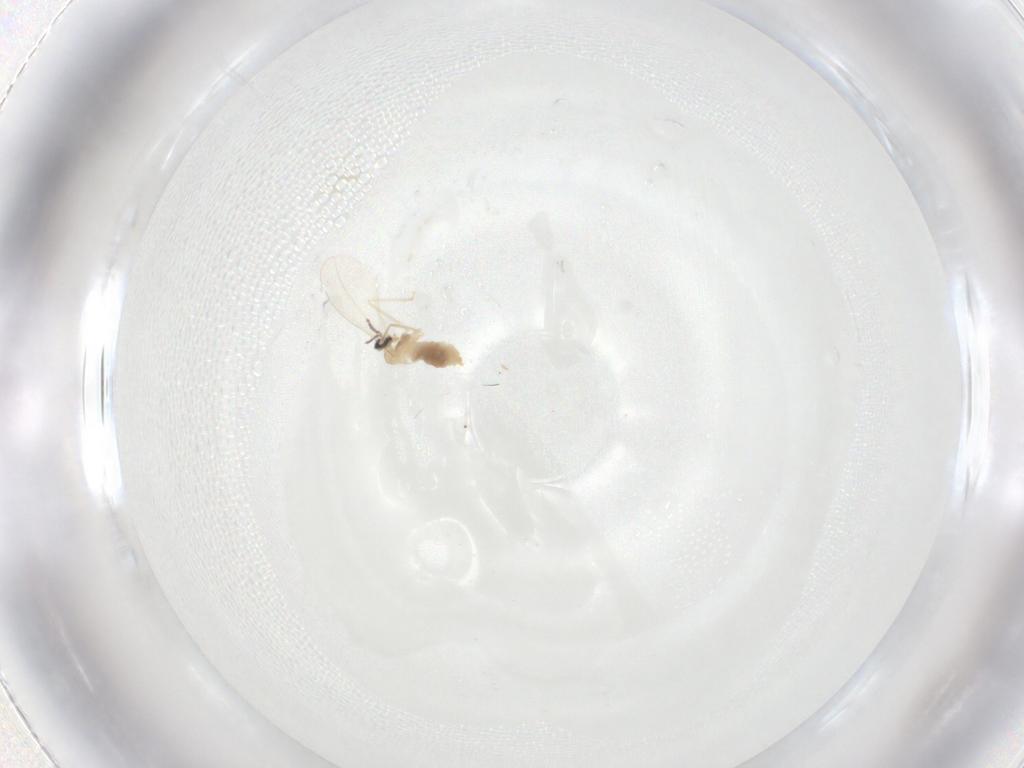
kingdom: Animalia
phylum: Arthropoda
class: Insecta
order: Diptera
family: Cecidomyiidae
